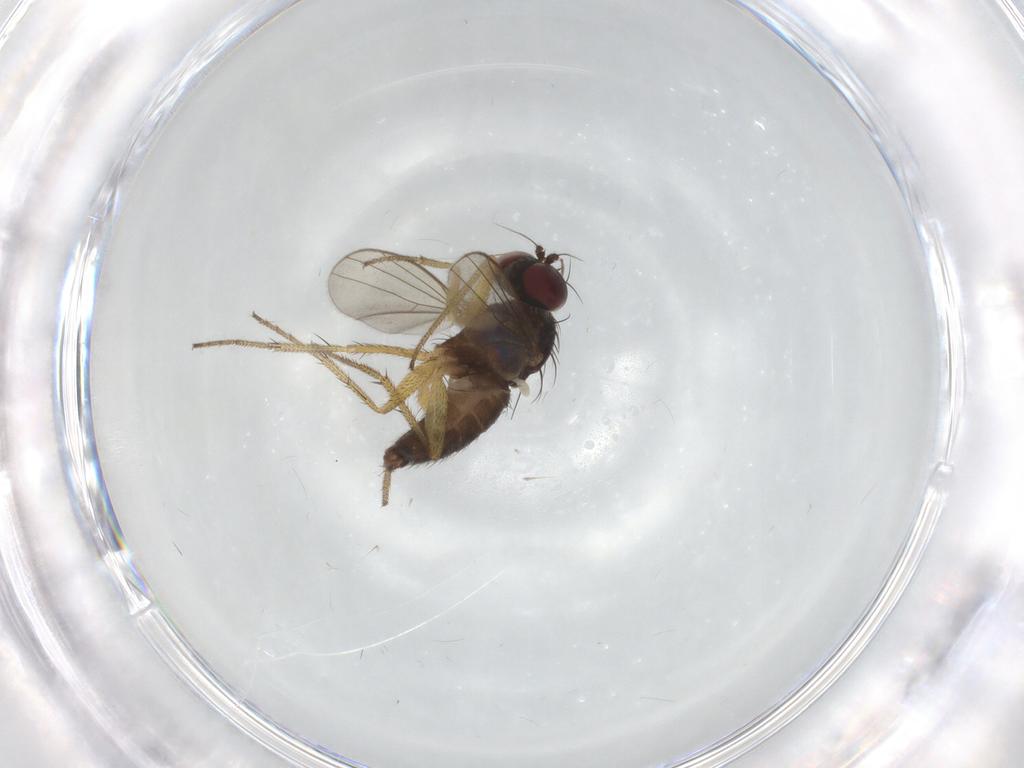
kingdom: Animalia
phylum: Arthropoda
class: Insecta
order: Diptera
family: Chironomidae
